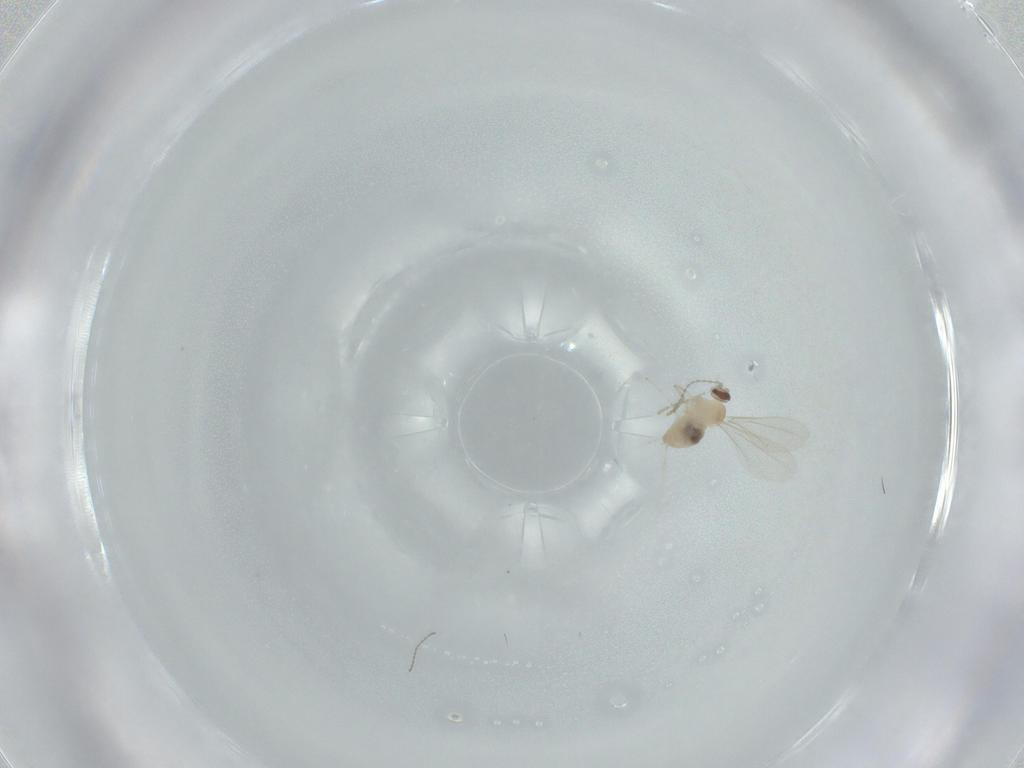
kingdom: Animalia
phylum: Arthropoda
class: Insecta
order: Diptera
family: Cecidomyiidae
